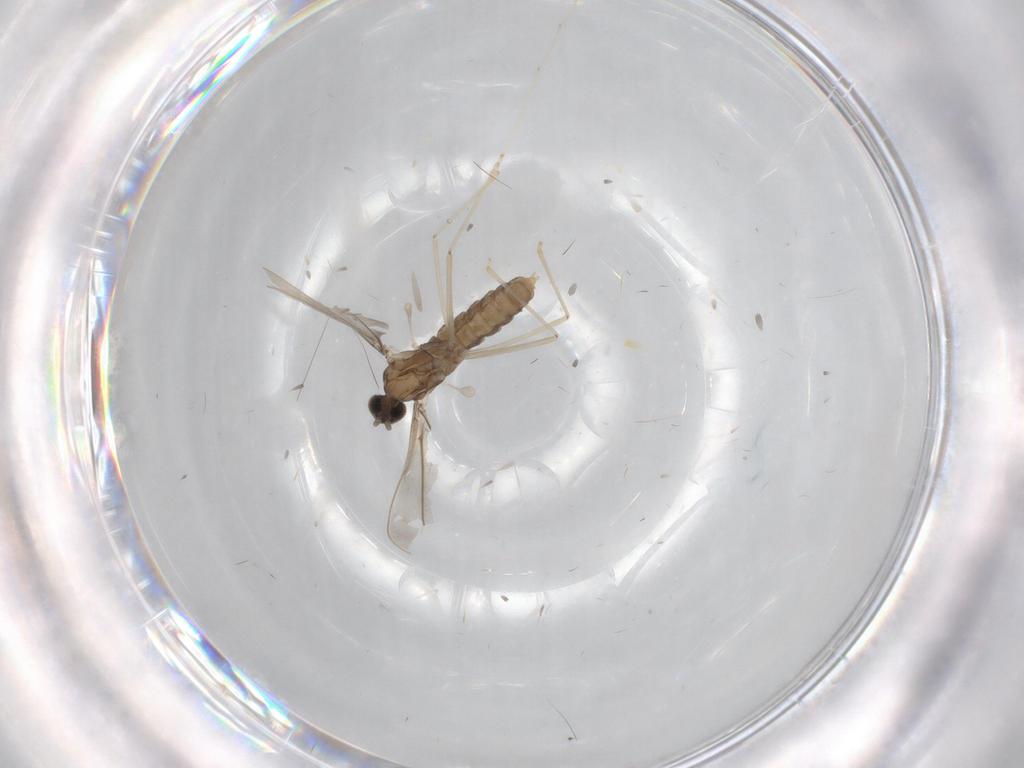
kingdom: Animalia
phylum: Arthropoda
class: Insecta
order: Diptera
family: Cecidomyiidae
